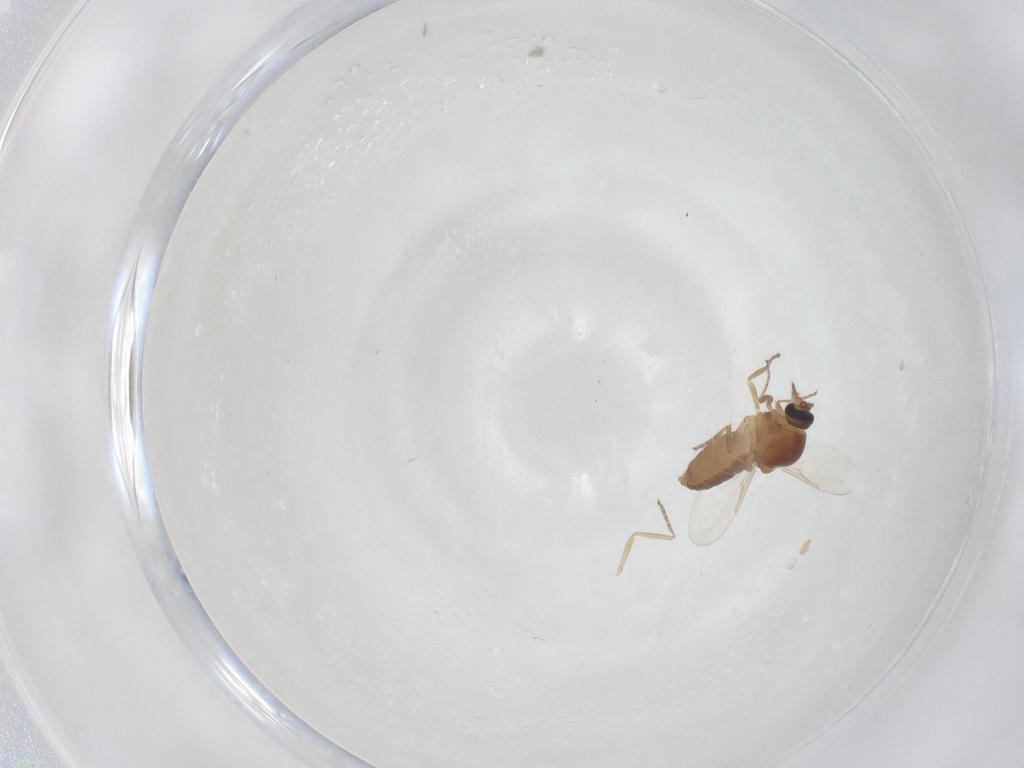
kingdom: Animalia
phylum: Arthropoda
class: Insecta
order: Diptera
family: Ceratopogonidae
